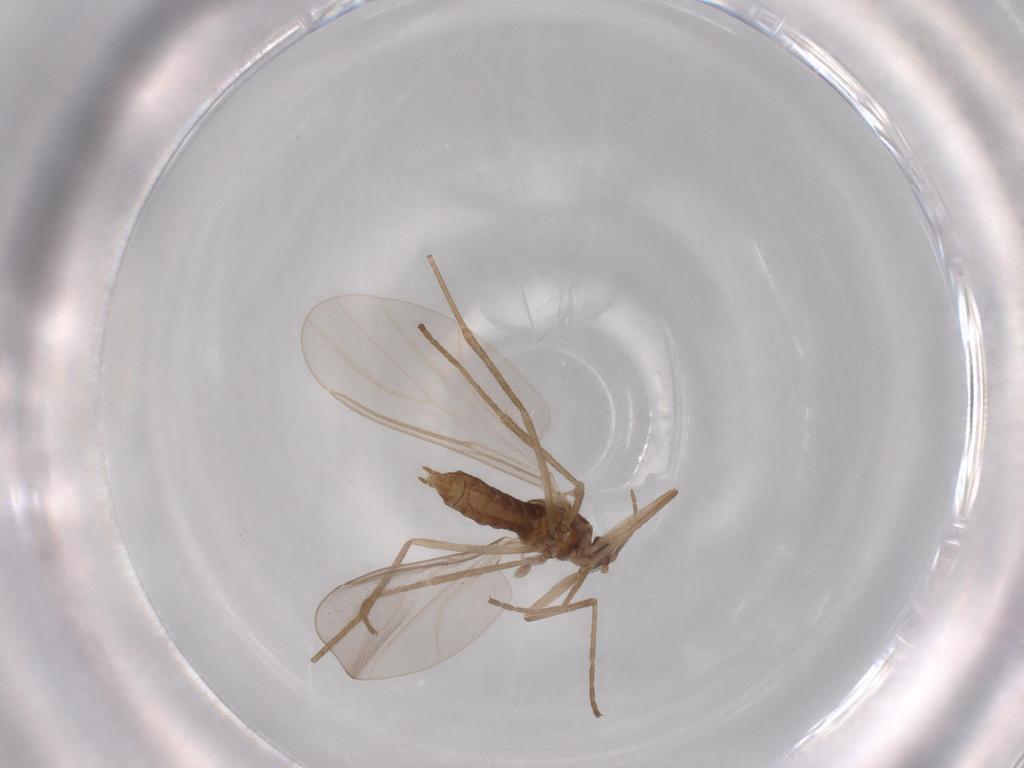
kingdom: Animalia
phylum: Arthropoda
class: Insecta
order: Diptera
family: Cecidomyiidae
